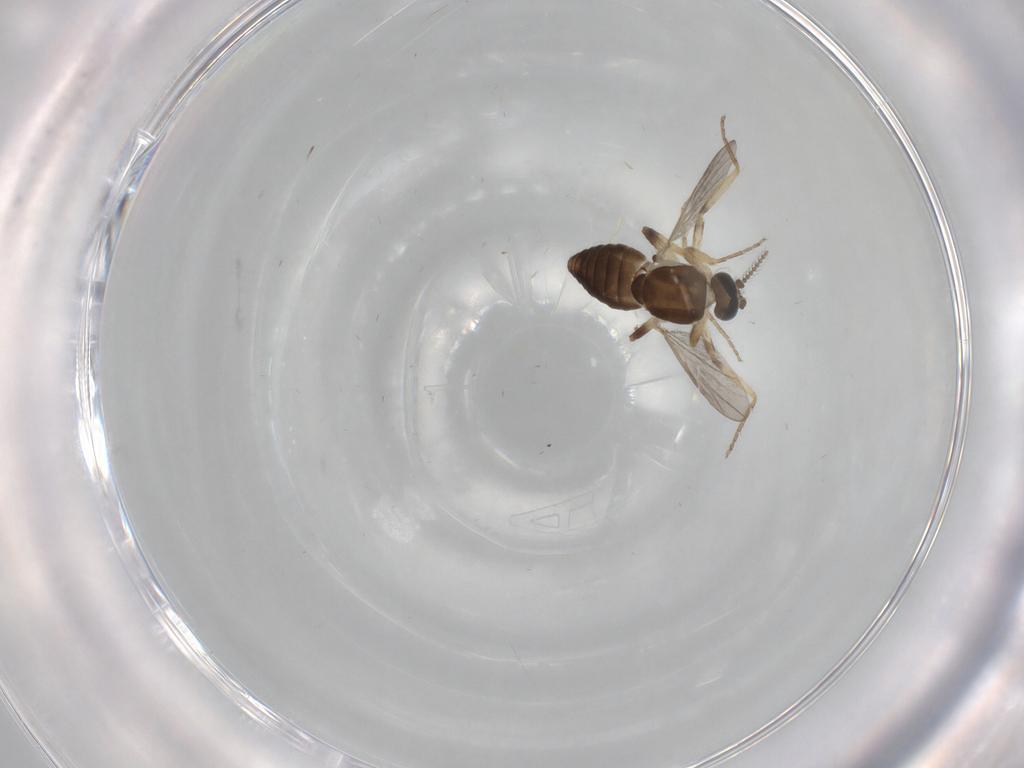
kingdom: Animalia
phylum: Arthropoda
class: Insecta
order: Diptera
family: Ceratopogonidae
